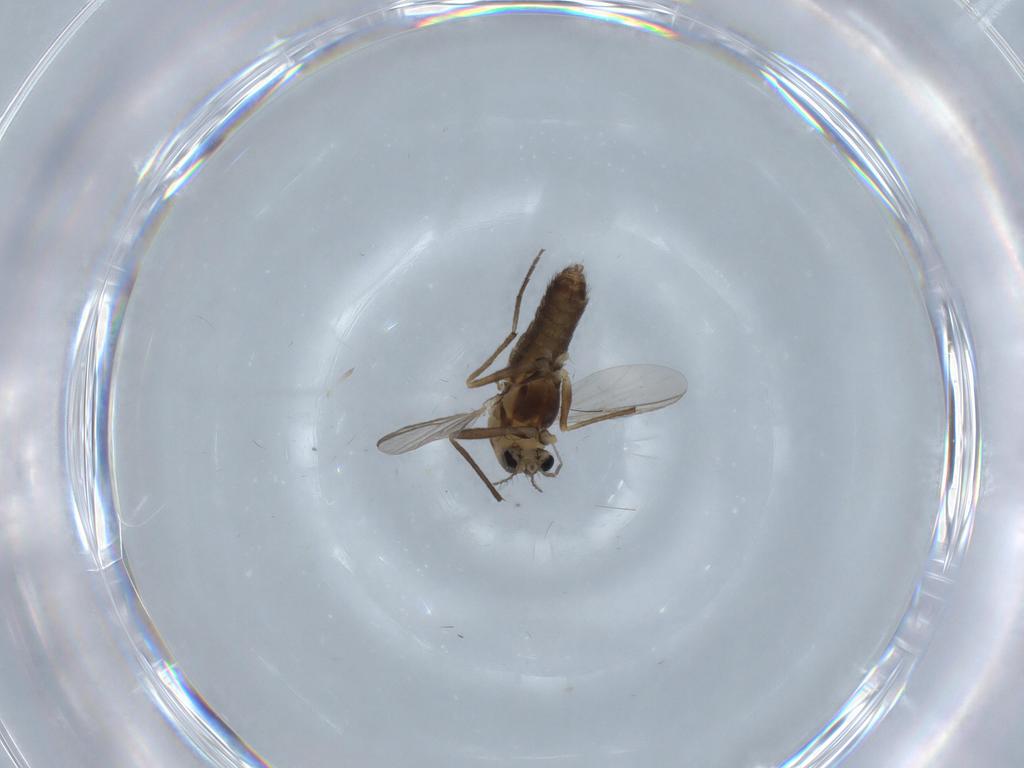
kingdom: Animalia
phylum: Arthropoda
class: Insecta
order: Diptera
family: Chironomidae
